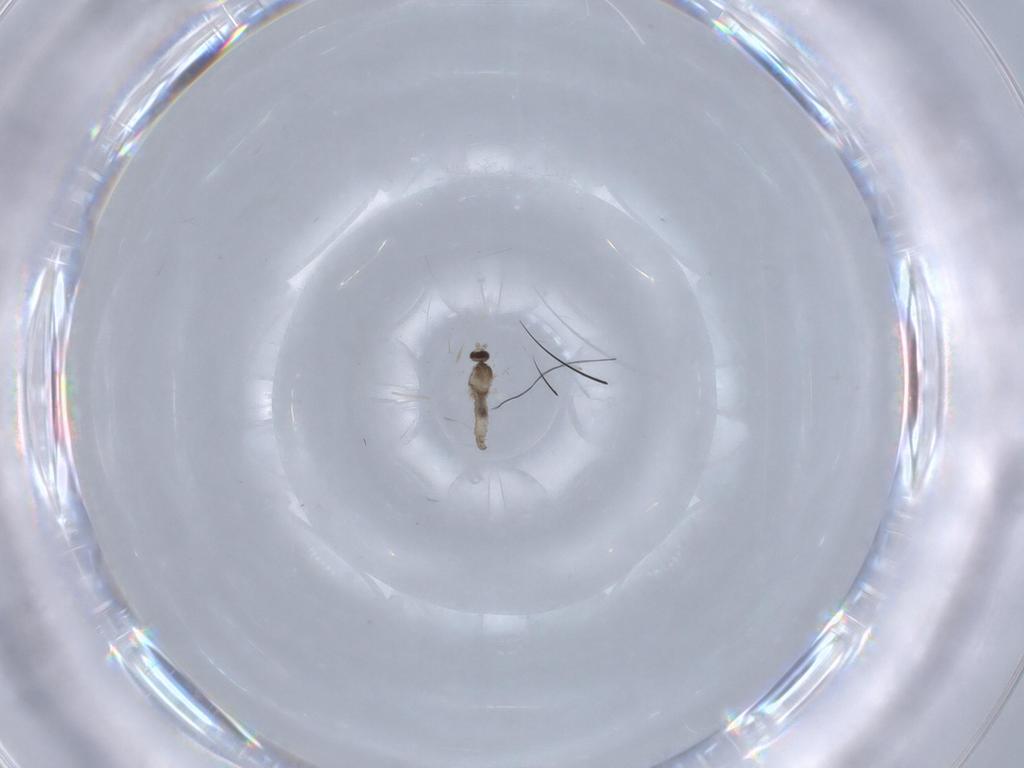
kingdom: Animalia
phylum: Arthropoda
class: Insecta
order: Diptera
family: Cecidomyiidae
